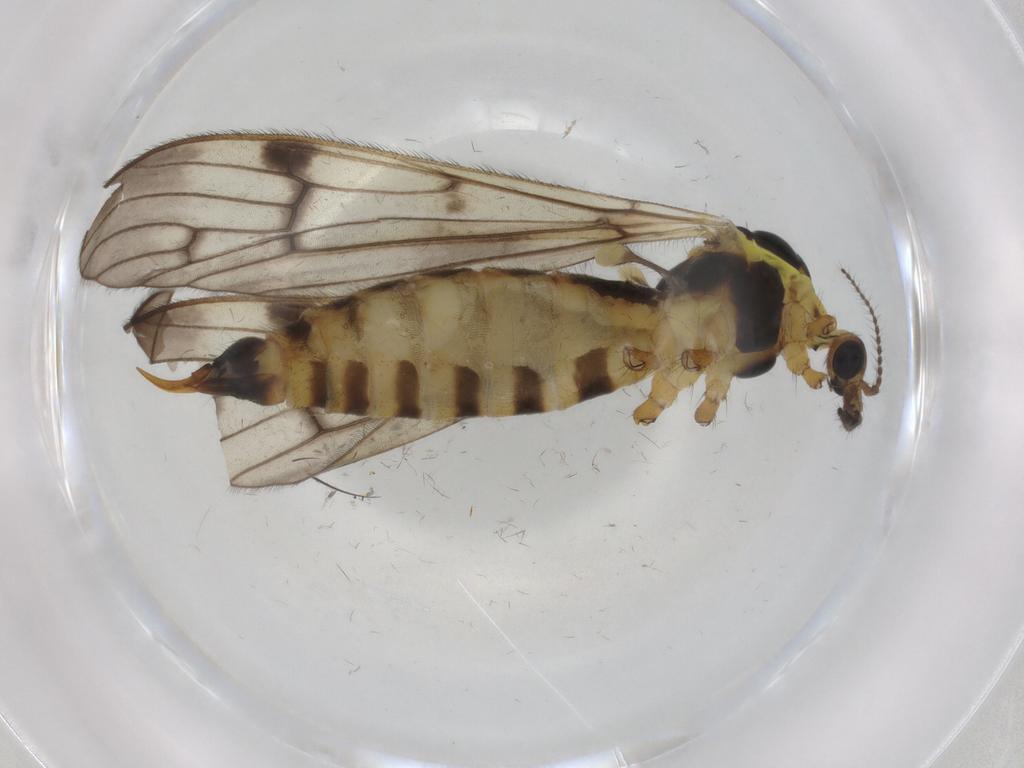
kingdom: Animalia
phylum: Arthropoda
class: Insecta
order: Diptera
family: Limoniidae
